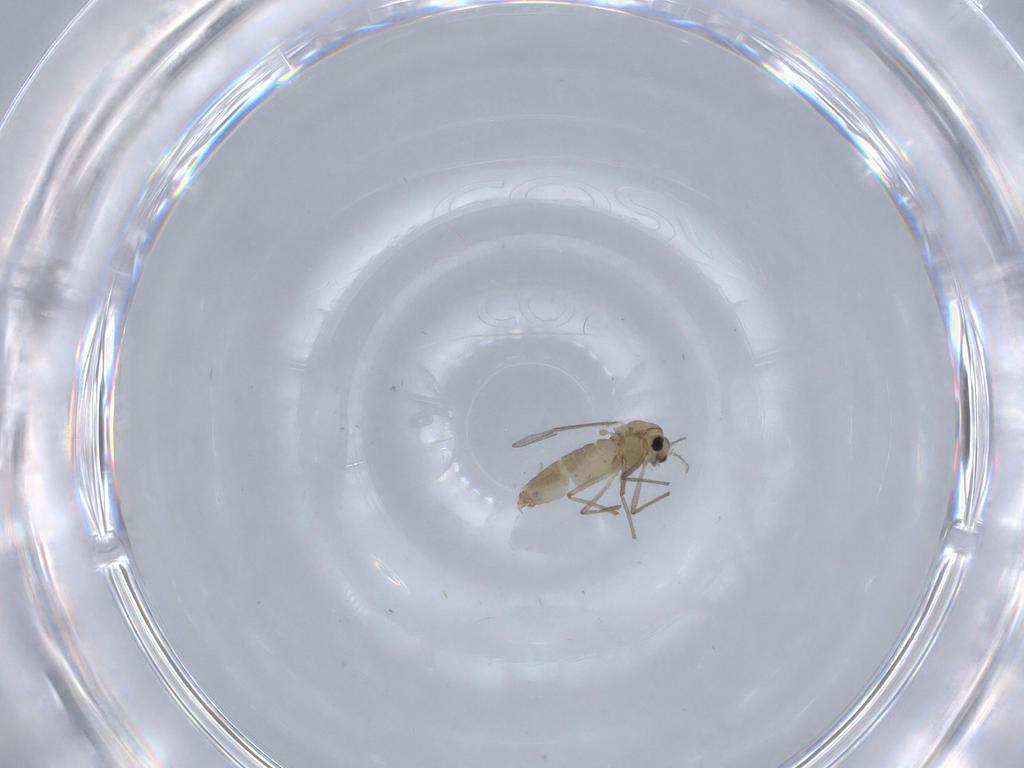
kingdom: Animalia
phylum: Arthropoda
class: Insecta
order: Diptera
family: Chironomidae
